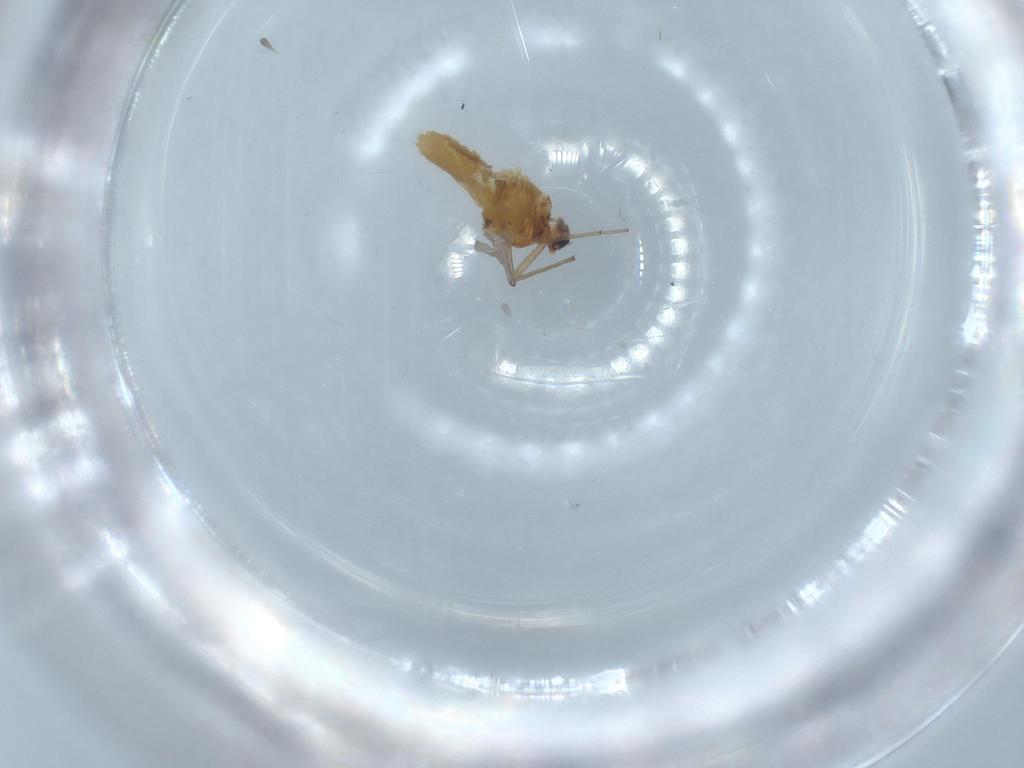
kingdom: Animalia
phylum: Arthropoda
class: Insecta
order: Diptera
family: Chironomidae
